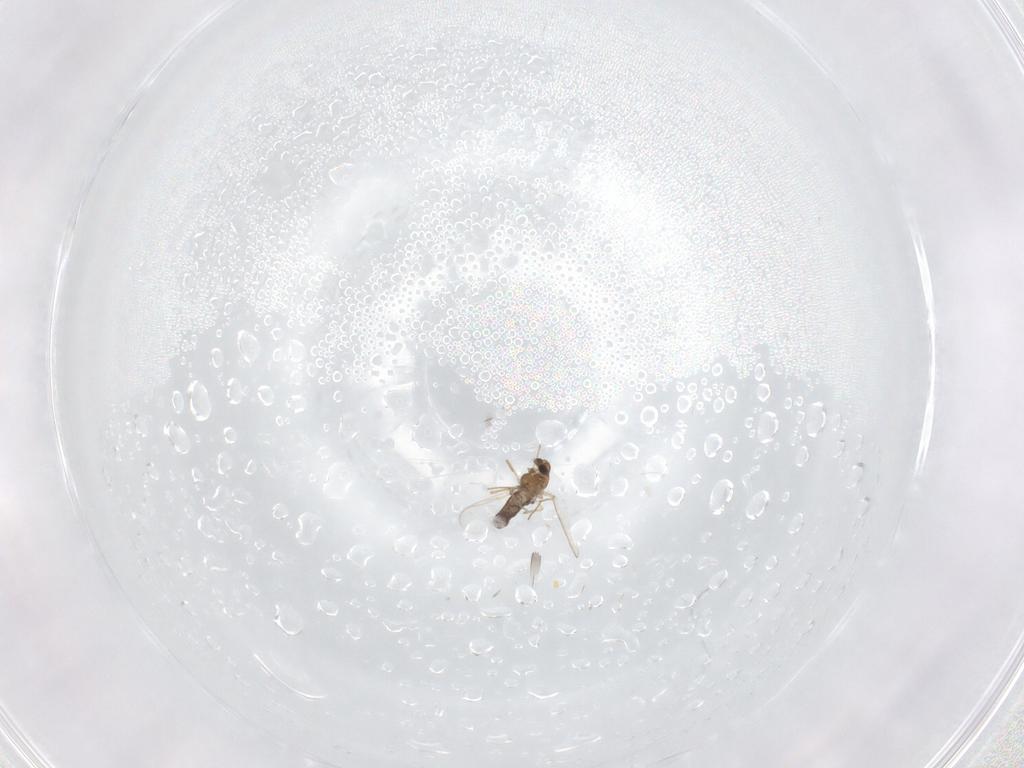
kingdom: Animalia
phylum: Arthropoda
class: Insecta
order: Diptera
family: Chironomidae
